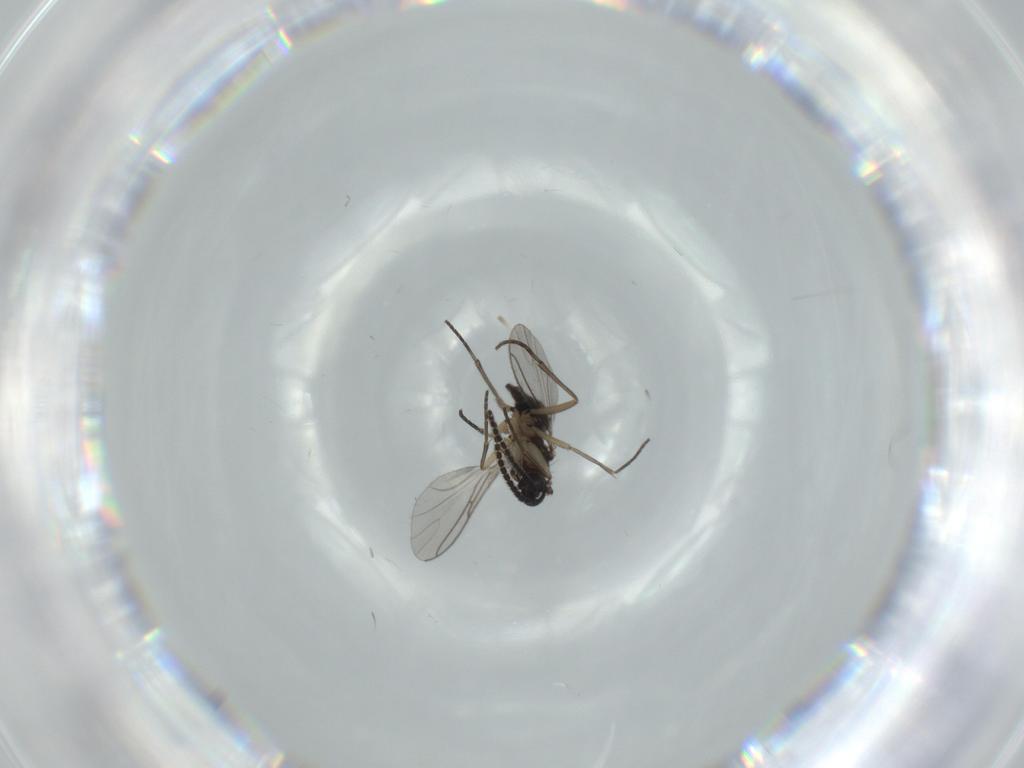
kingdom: Animalia
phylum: Arthropoda
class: Insecta
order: Diptera
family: Sciaridae
